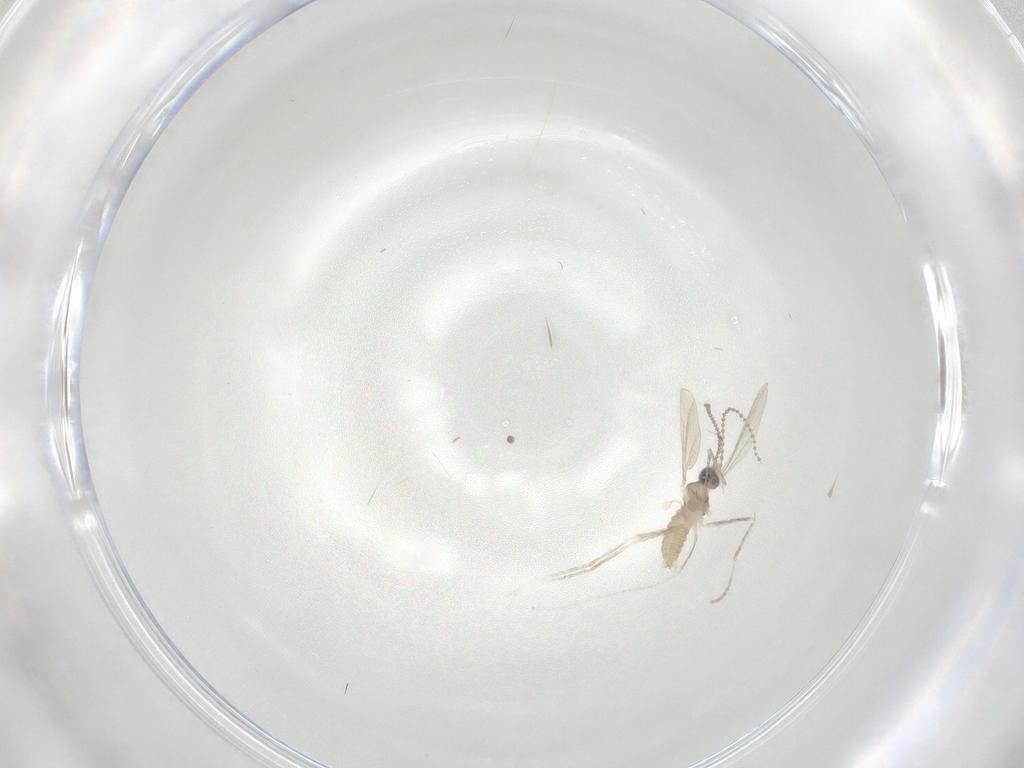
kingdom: Animalia
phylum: Arthropoda
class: Insecta
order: Diptera
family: Cecidomyiidae
